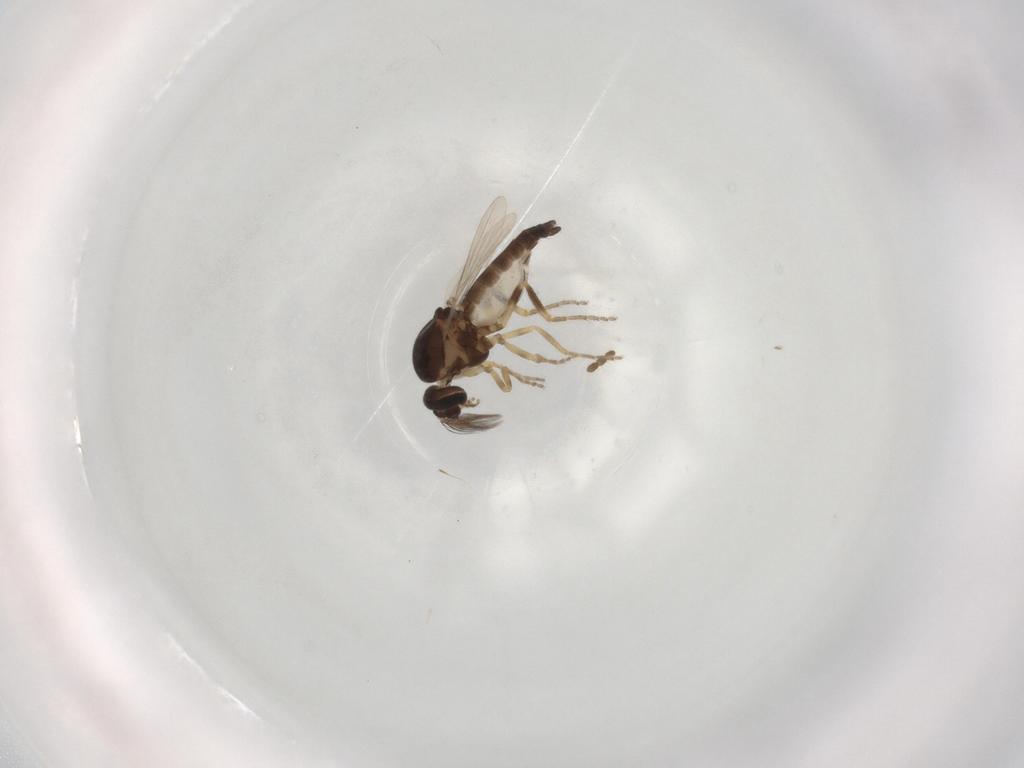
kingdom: Animalia
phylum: Arthropoda
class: Insecta
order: Diptera
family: Ceratopogonidae
